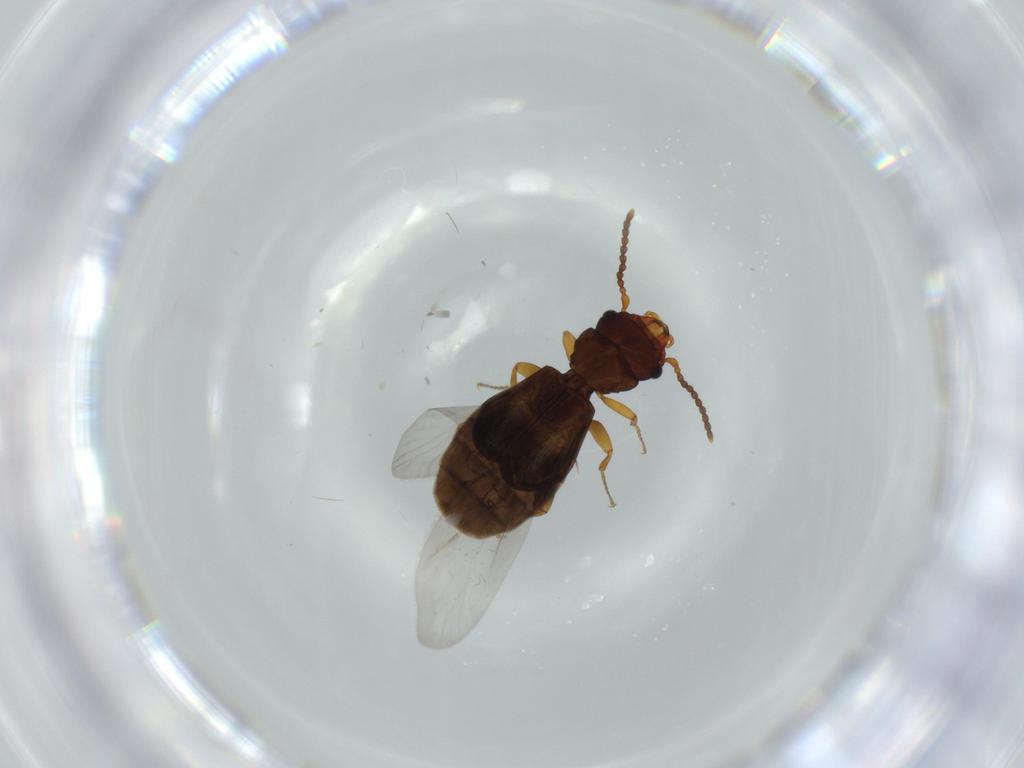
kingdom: Animalia
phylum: Arthropoda
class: Insecta
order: Coleoptera
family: Salpingidae
